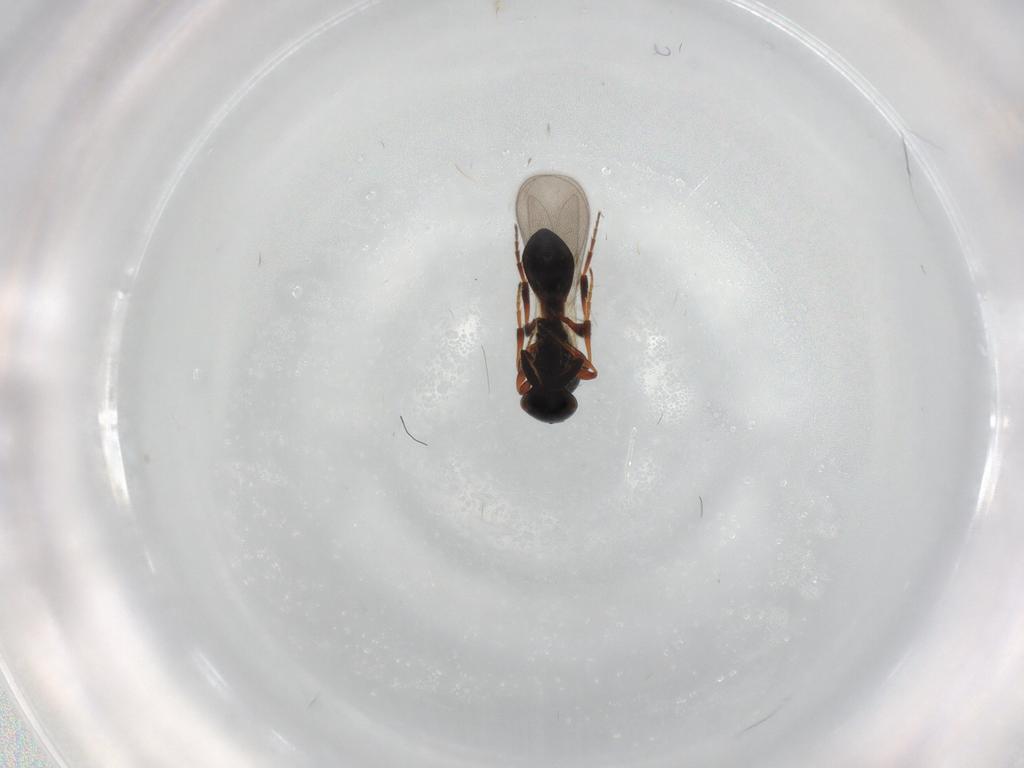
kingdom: Animalia
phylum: Arthropoda
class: Insecta
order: Hymenoptera
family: Platygastridae
